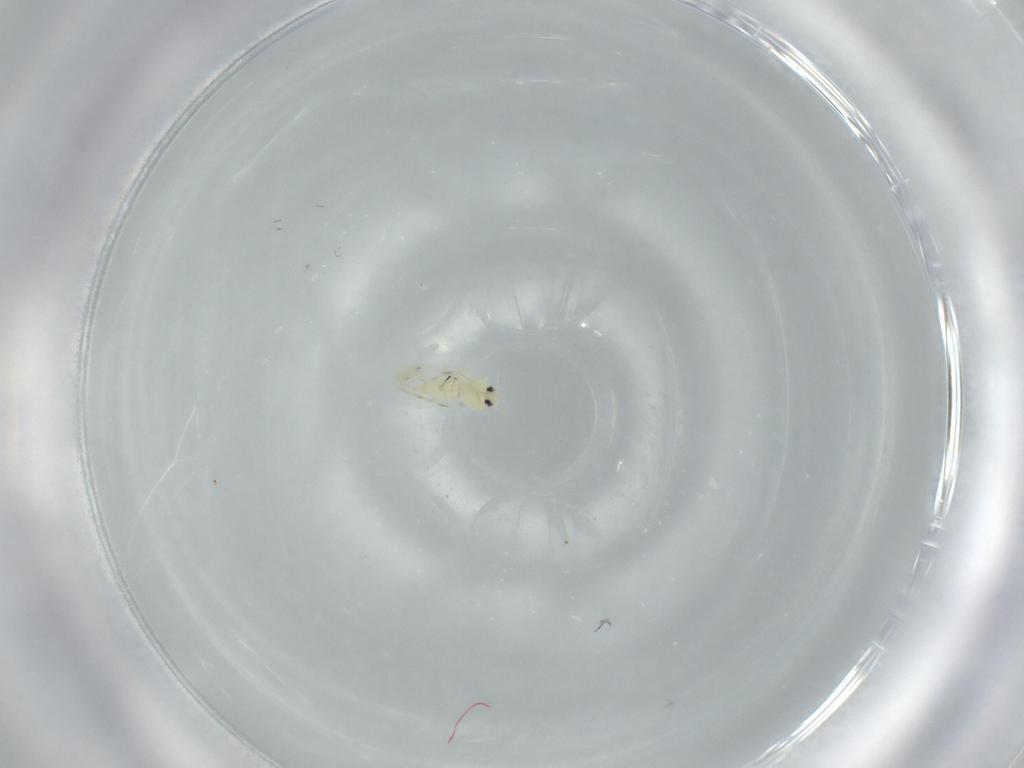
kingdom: Animalia
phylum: Arthropoda
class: Insecta
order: Hemiptera
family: Aleyrodidae
